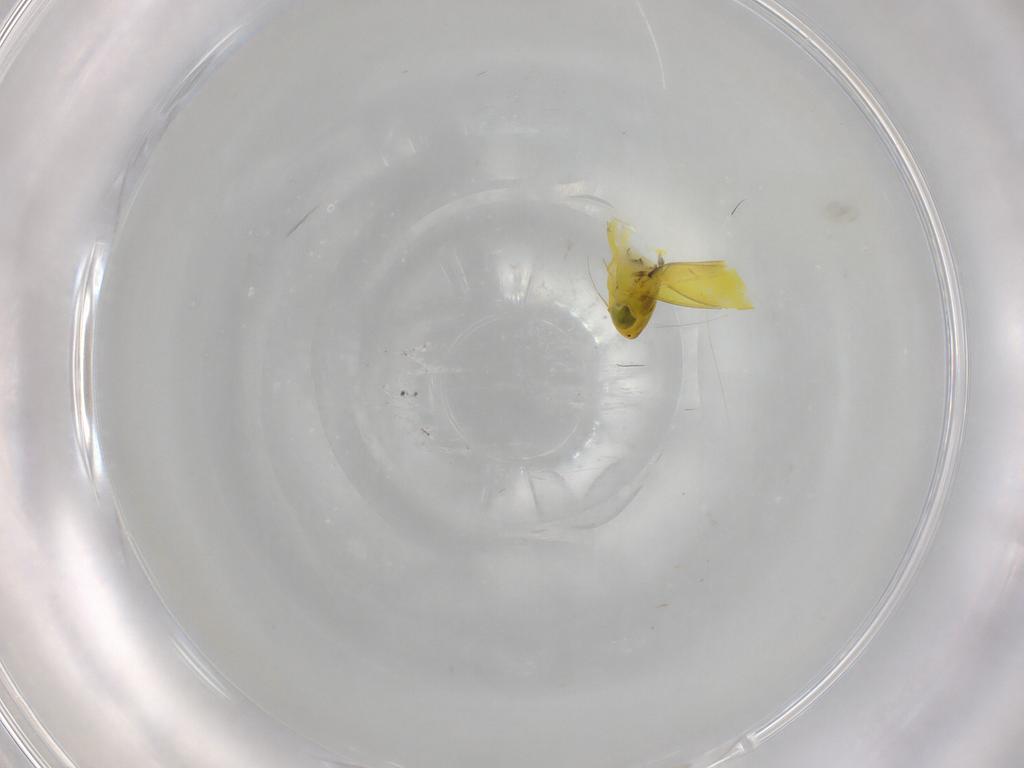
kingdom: Animalia
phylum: Arthropoda
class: Insecta
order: Hemiptera
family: Cicadellidae
